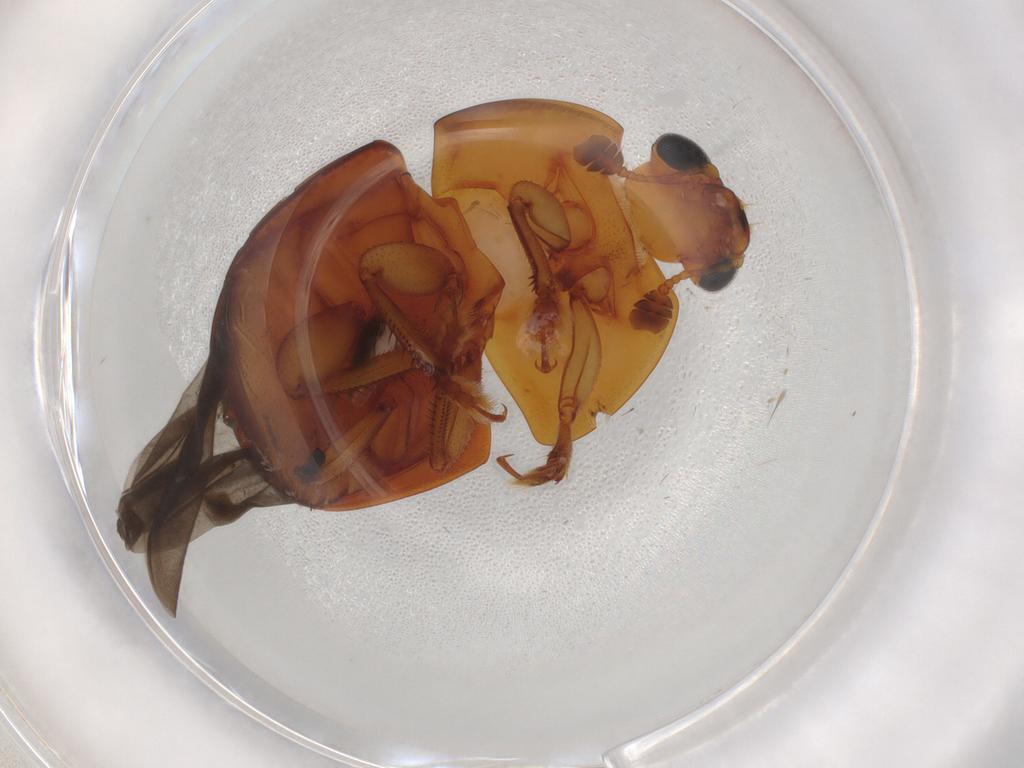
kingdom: Animalia
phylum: Arthropoda
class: Insecta
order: Coleoptera
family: Nitidulidae
